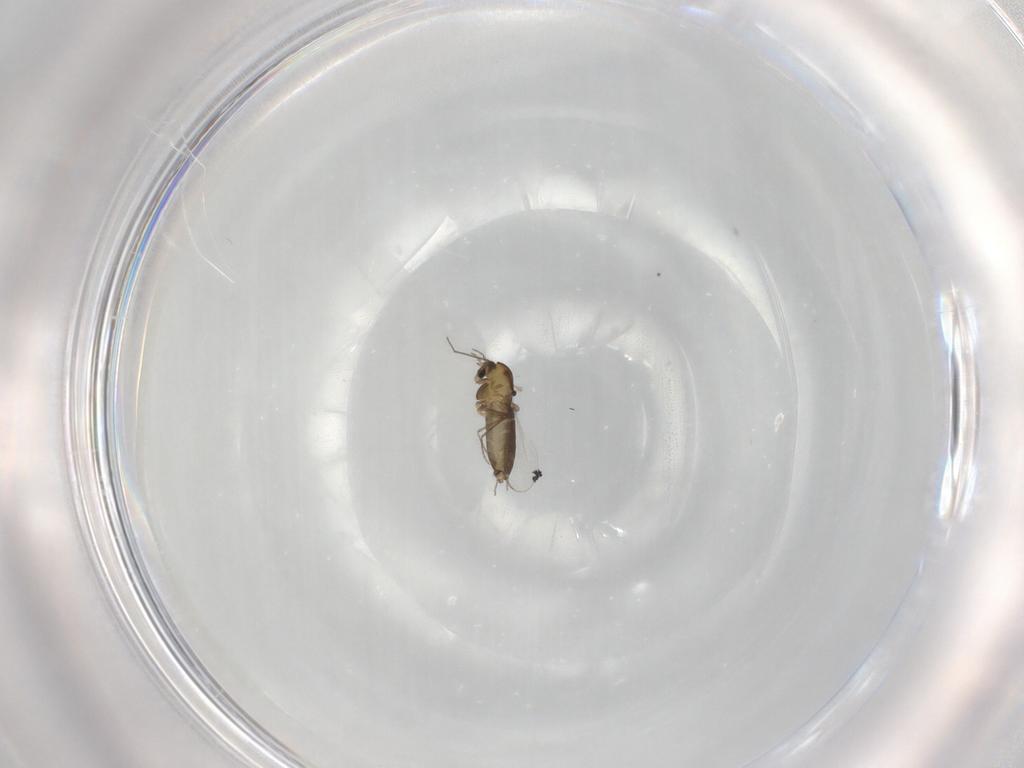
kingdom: Animalia
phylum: Arthropoda
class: Insecta
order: Diptera
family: Chironomidae
